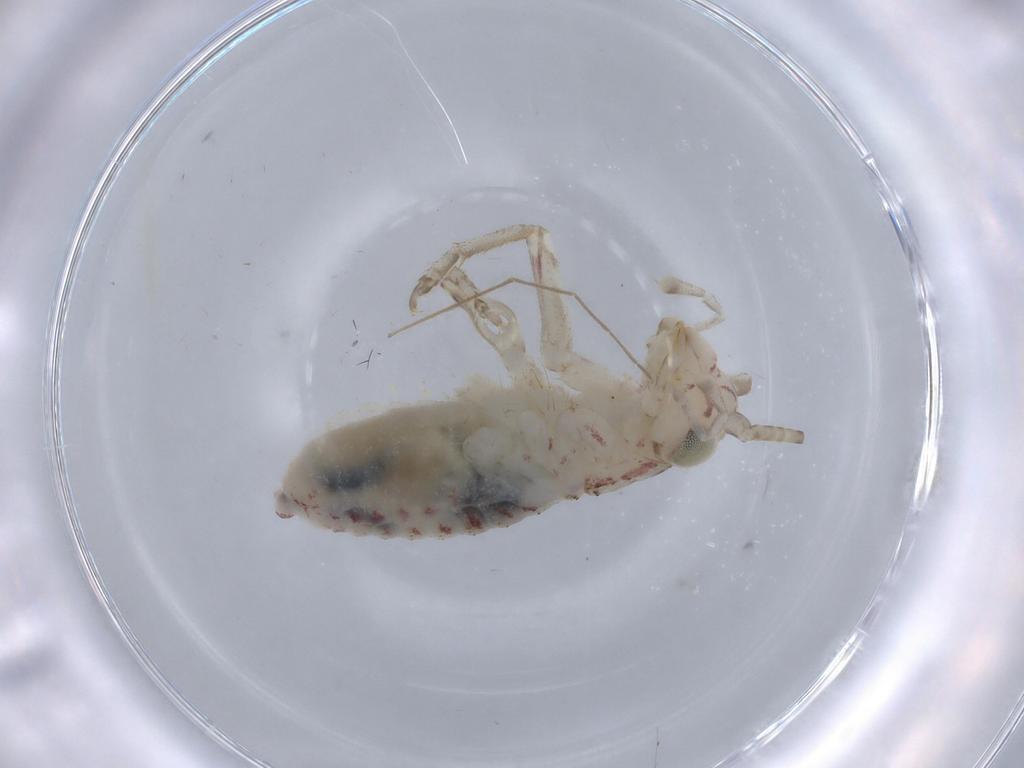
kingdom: Animalia
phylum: Arthropoda
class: Insecta
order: Orthoptera
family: Trigonidiidae
